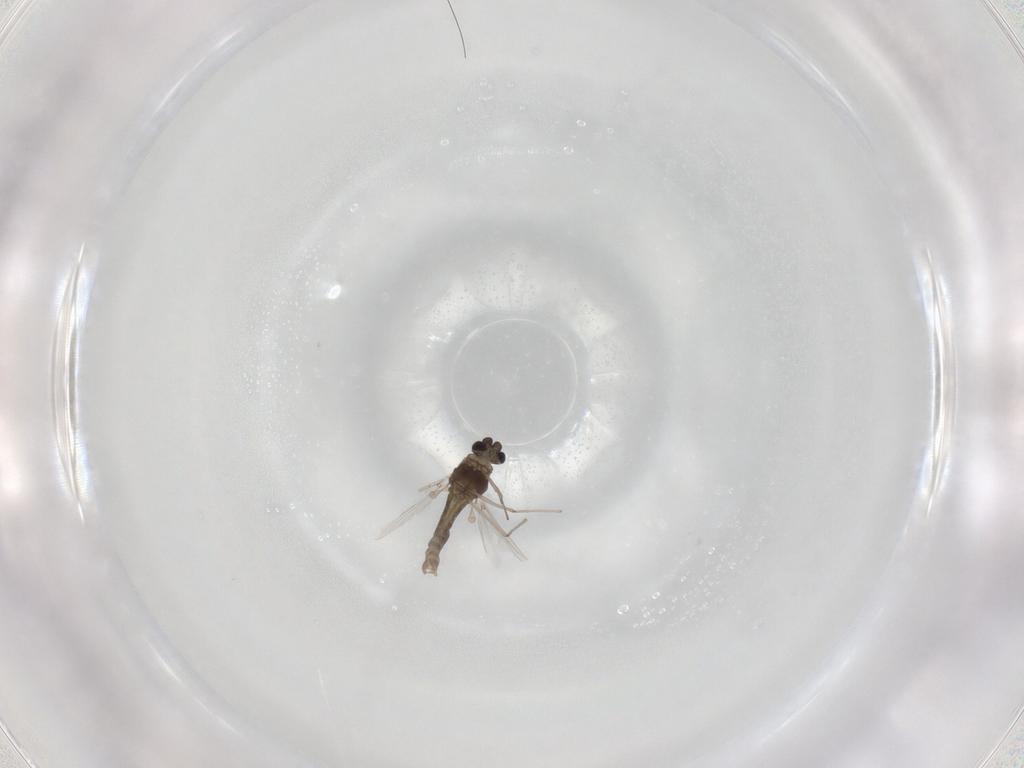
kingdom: Animalia
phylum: Arthropoda
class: Insecta
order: Diptera
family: Chironomidae
